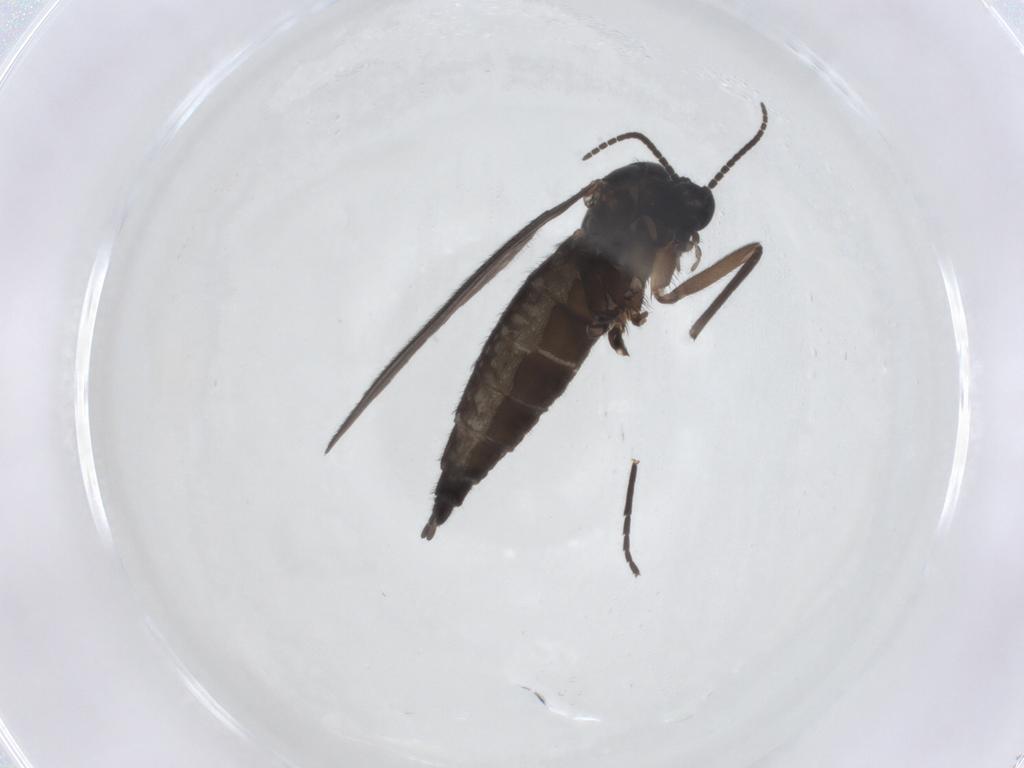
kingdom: Animalia
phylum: Arthropoda
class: Insecta
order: Diptera
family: Sciaridae
